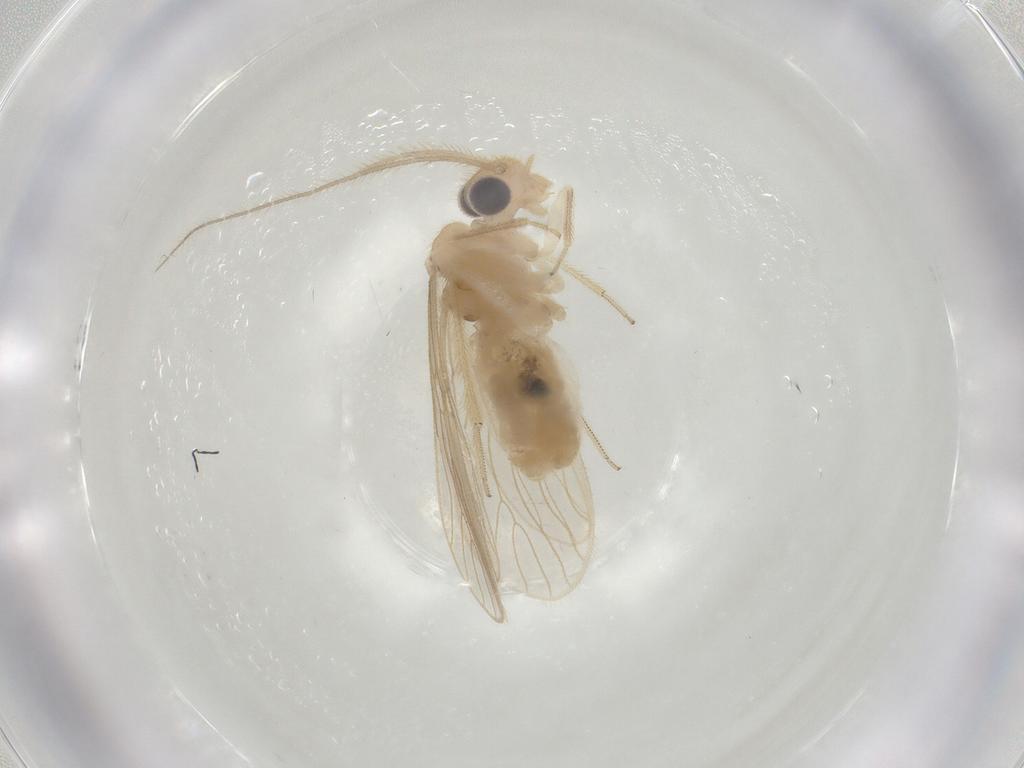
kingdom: Animalia
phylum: Arthropoda
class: Insecta
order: Psocodea
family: Cladiopsocidae
